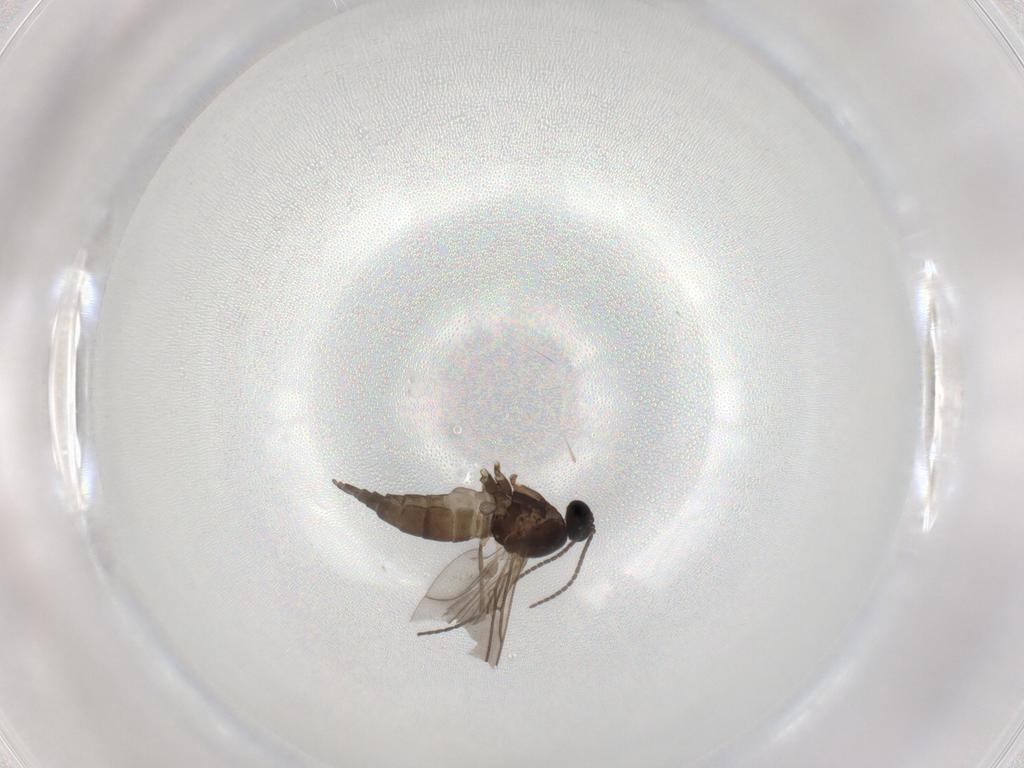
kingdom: Animalia
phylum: Arthropoda
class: Insecta
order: Diptera
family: Sciaridae
